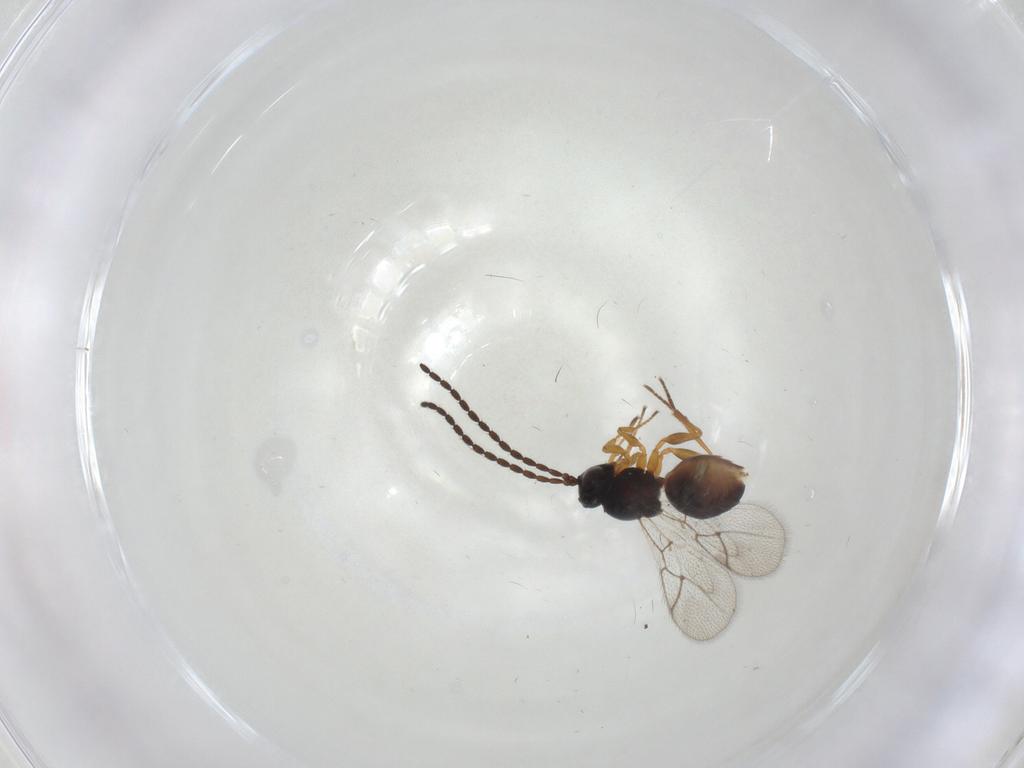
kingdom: Animalia
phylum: Arthropoda
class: Insecta
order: Hymenoptera
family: Figitidae
